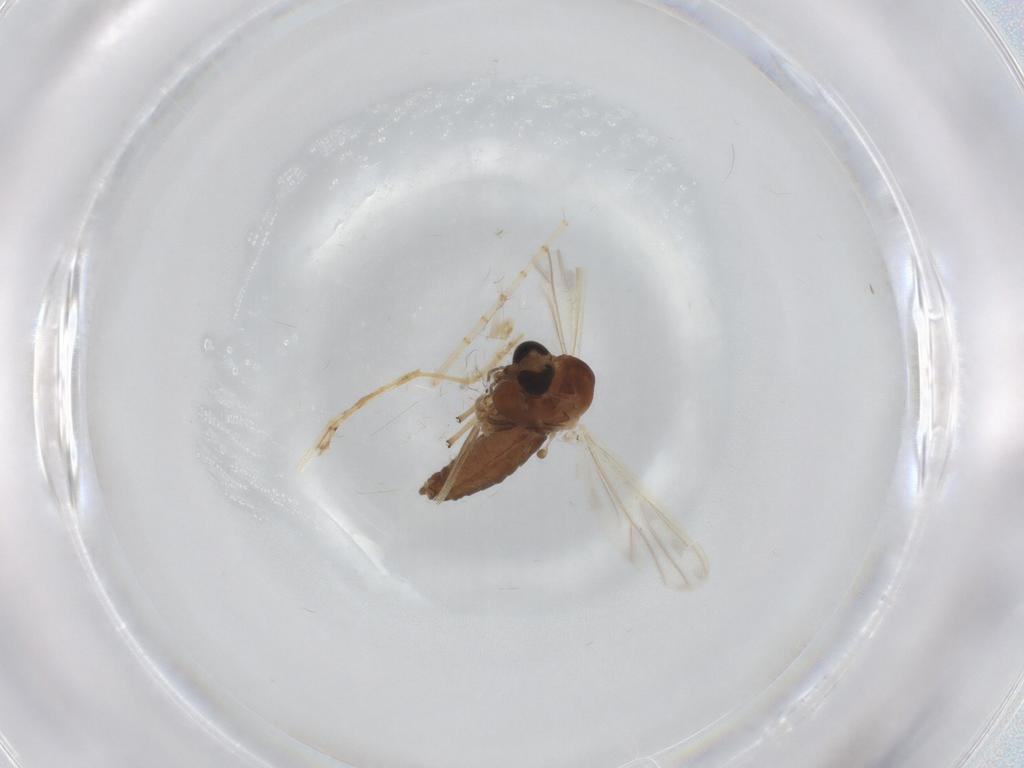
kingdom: Animalia
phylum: Arthropoda
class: Insecta
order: Diptera
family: Chironomidae
